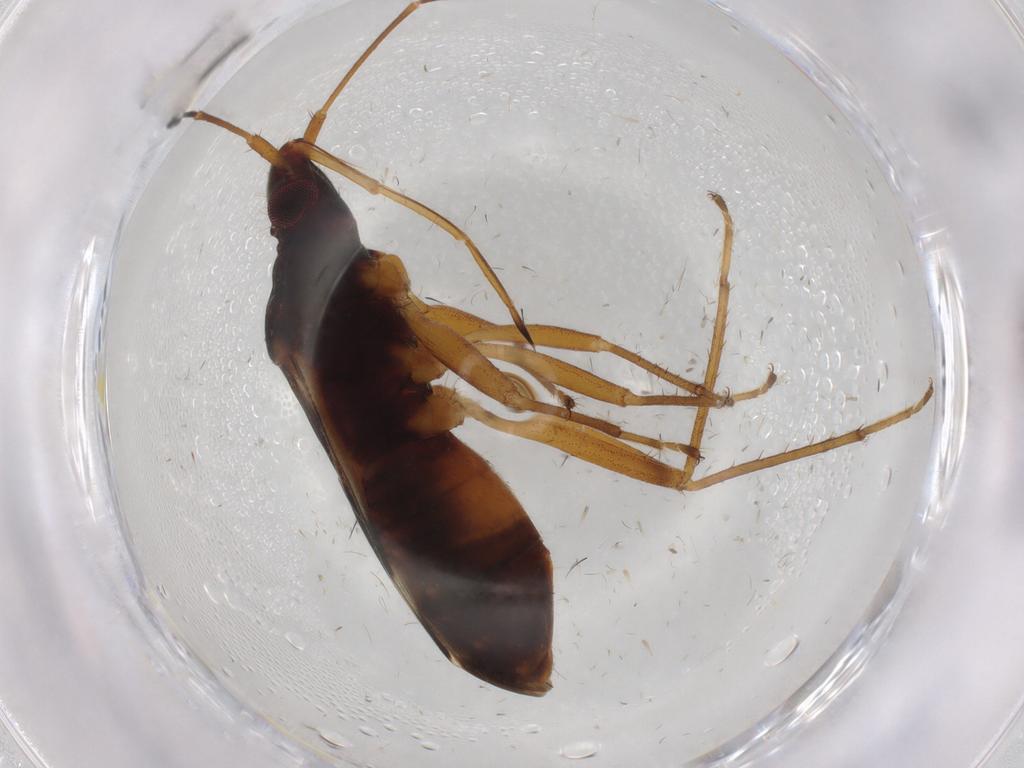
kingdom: Animalia
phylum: Arthropoda
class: Insecta
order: Hemiptera
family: Rhyparochromidae
